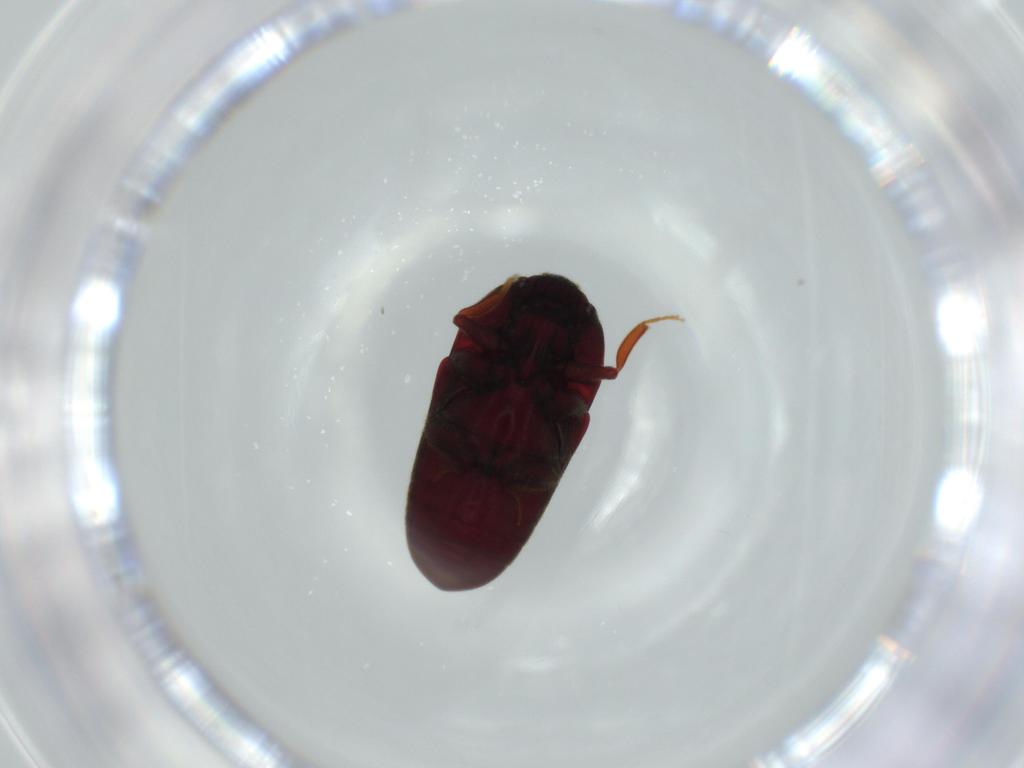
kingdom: Animalia
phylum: Arthropoda
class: Insecta
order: Coleoptera
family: Throscidae
